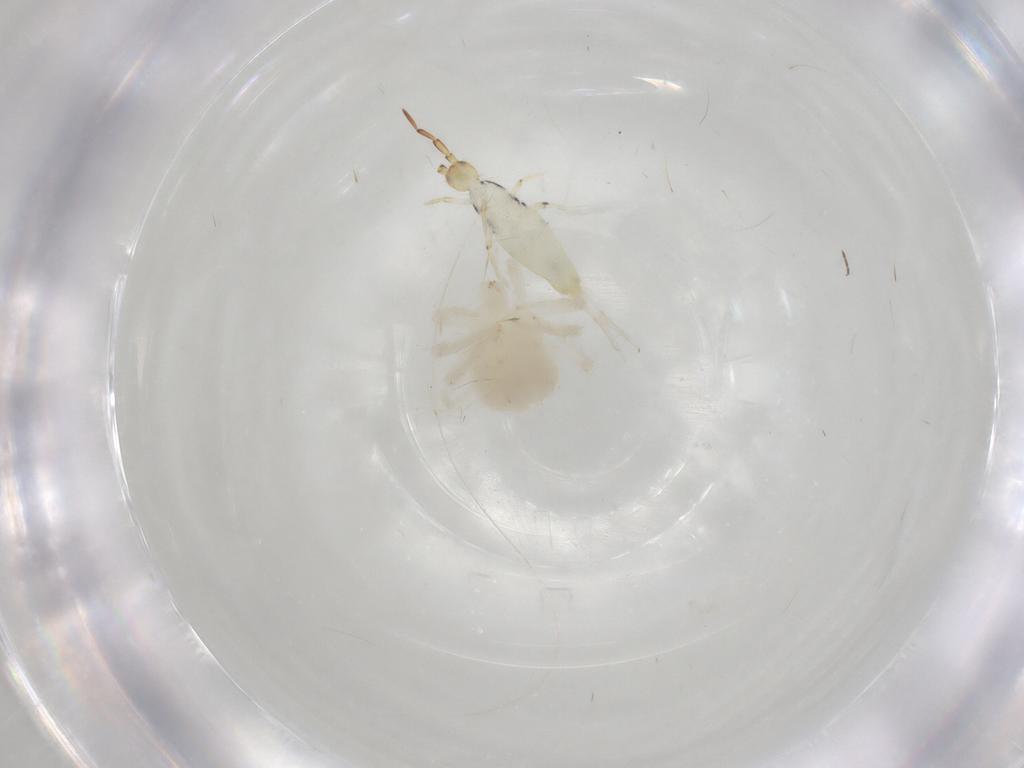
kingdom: Animalia
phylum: Arthropoda
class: Collembola
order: Entomobryomorpha
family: Entomobryidae
